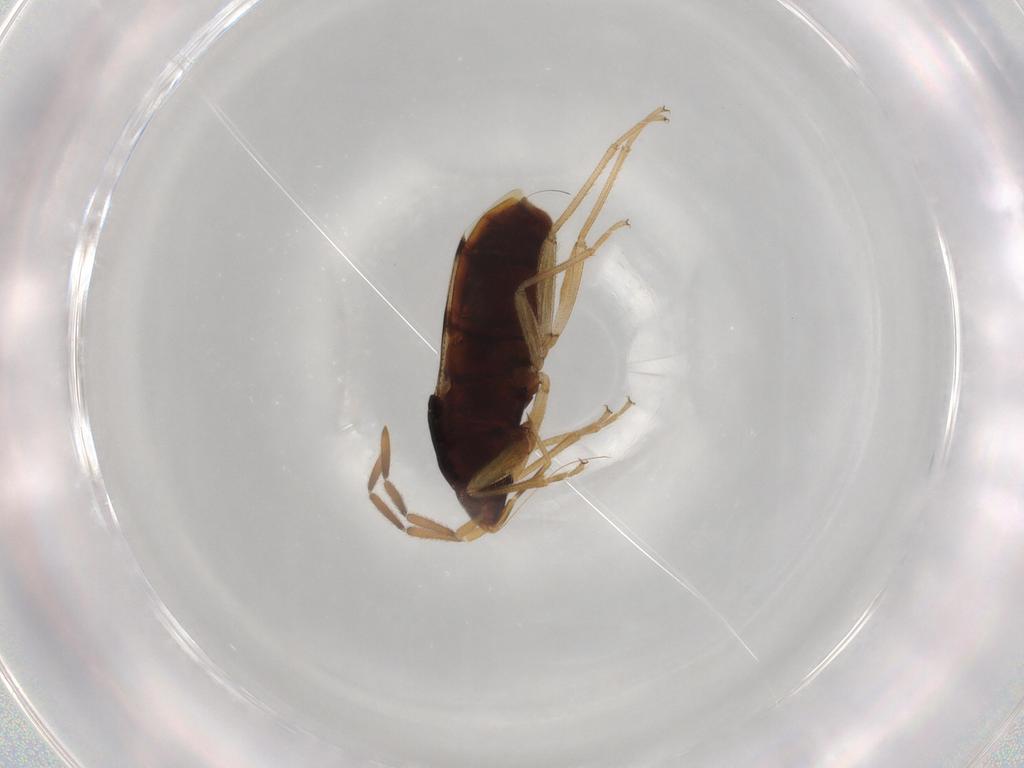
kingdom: Animalia
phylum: Arthropoda
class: Insecta
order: Hemiptera
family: Rhyparochromidae
